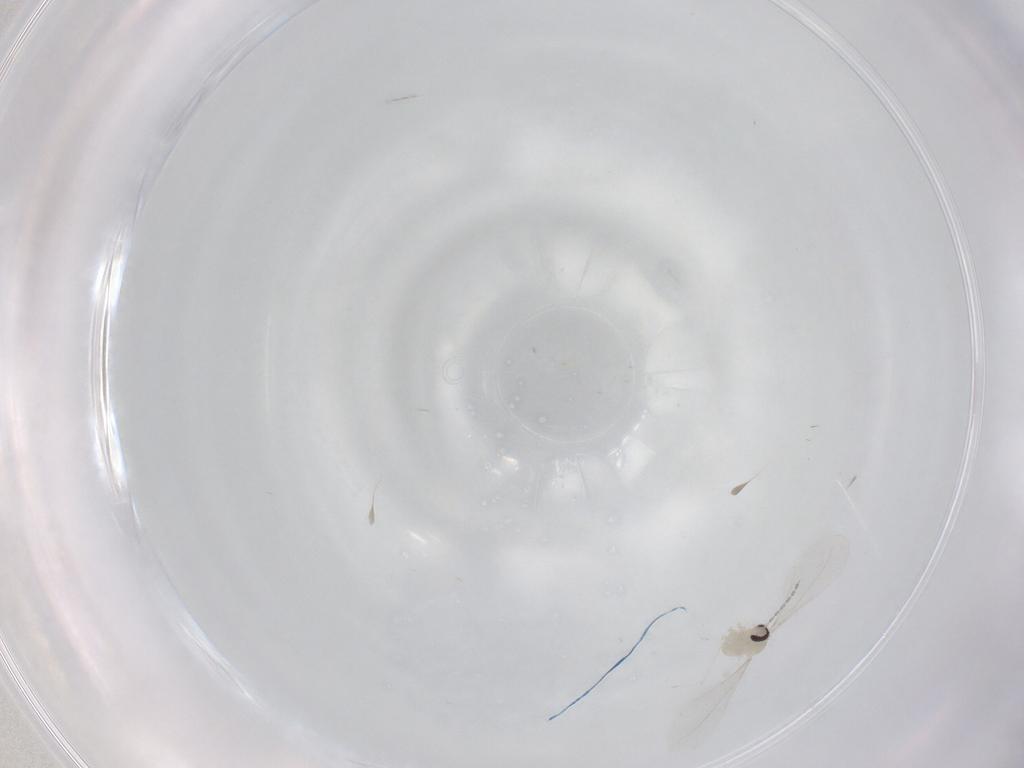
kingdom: Animalia
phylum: Arthropoda
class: Insecta
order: Diptera
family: Cecidomyiidae
